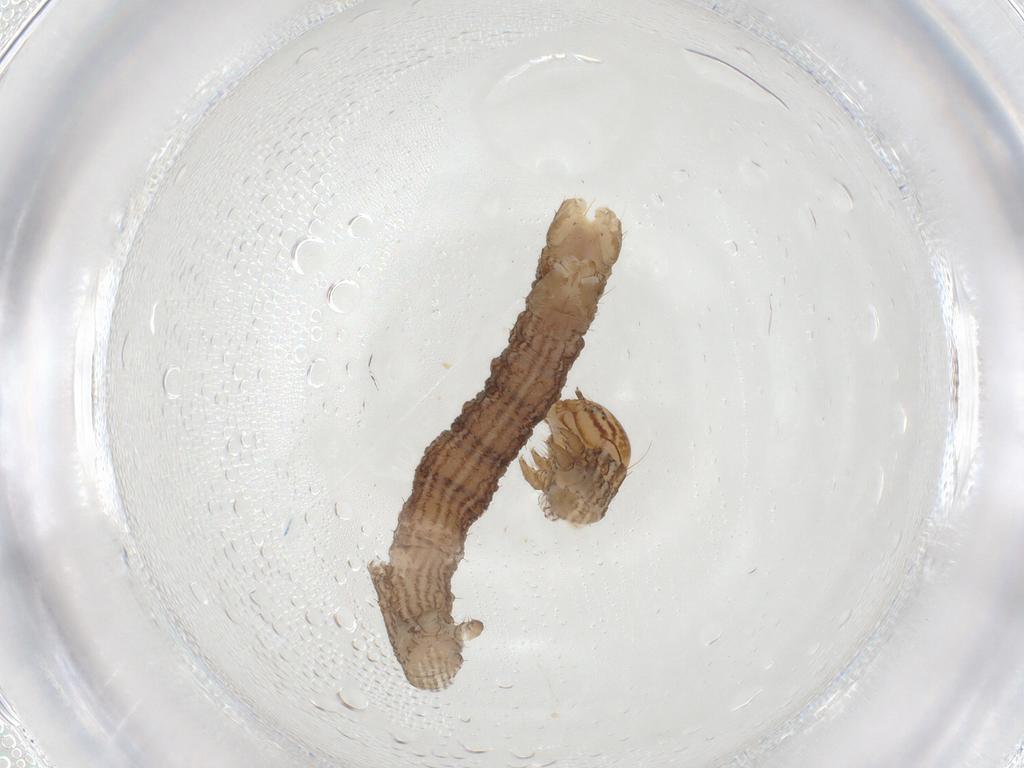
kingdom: Animalia
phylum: Arthropoda
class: Insecta
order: Lepidoptera
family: Geometridae
